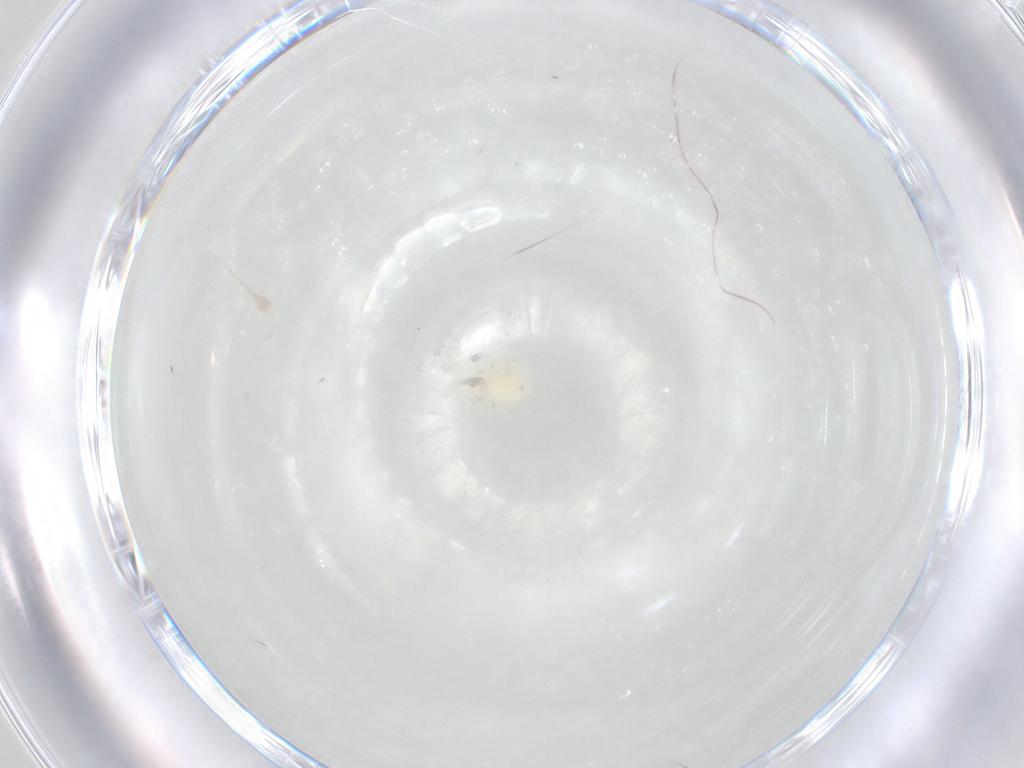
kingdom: Animalia
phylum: Arthropoda
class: Arachnida
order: Mesostigmata
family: Phytoseiidae
